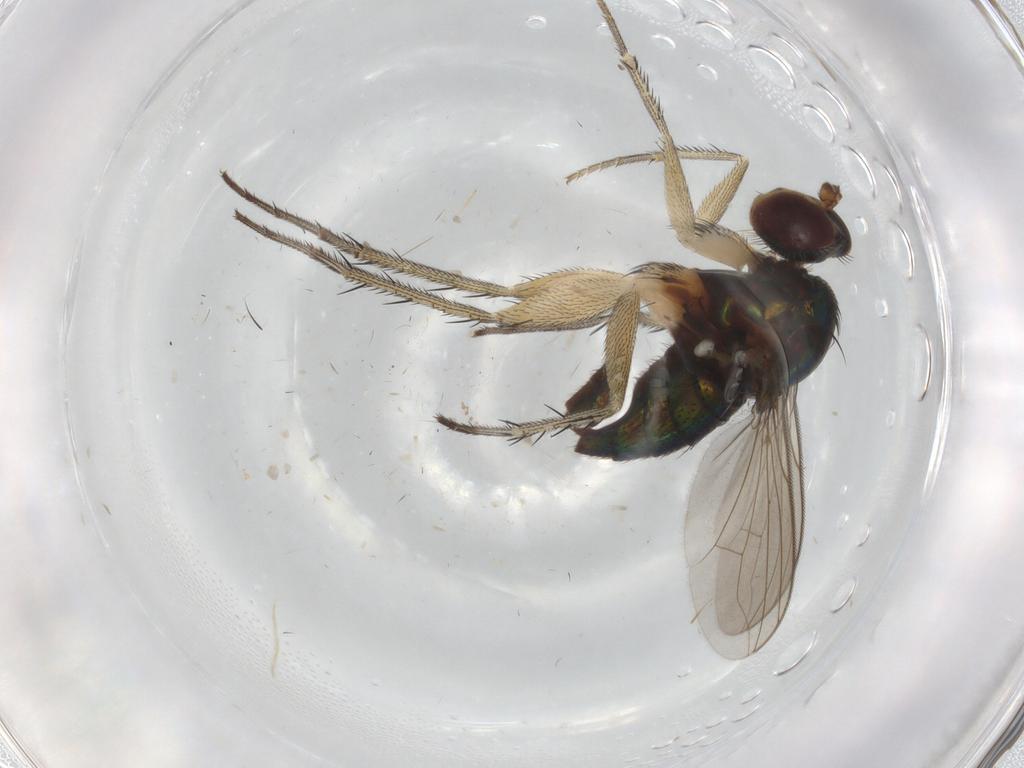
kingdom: Animalia
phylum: Arthropoda
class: Insecta
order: Diptera
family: Dolichopodidae
